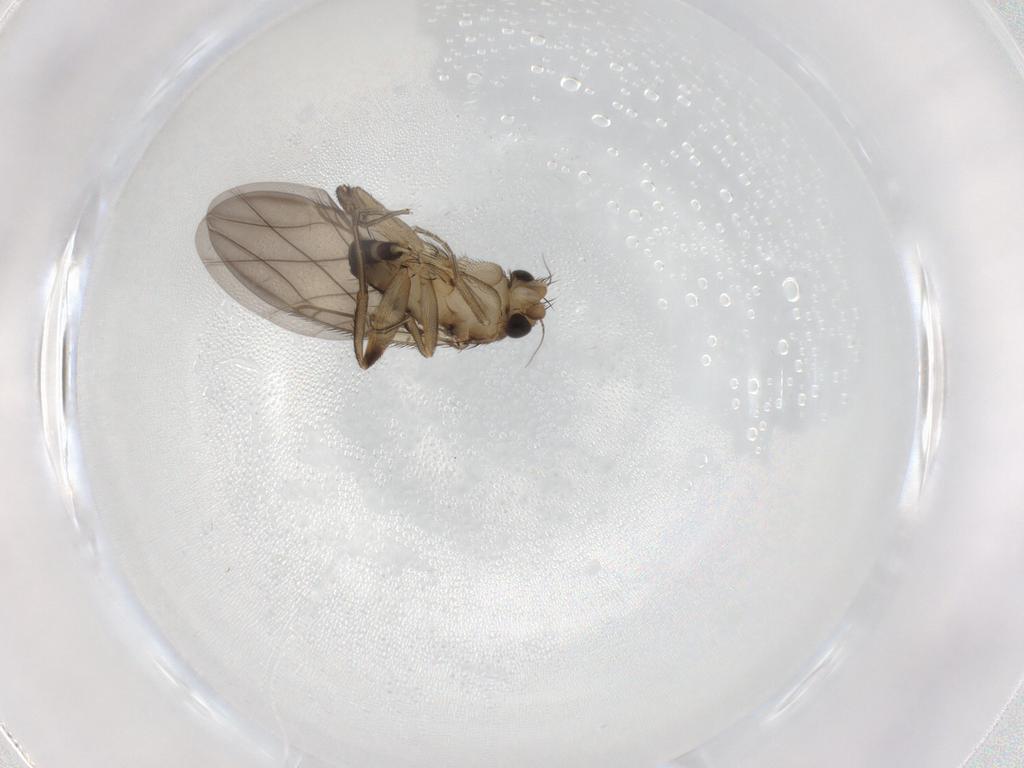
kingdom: Animalia
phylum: Arthropoda
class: Insecta
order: Diptera
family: Phoridae
